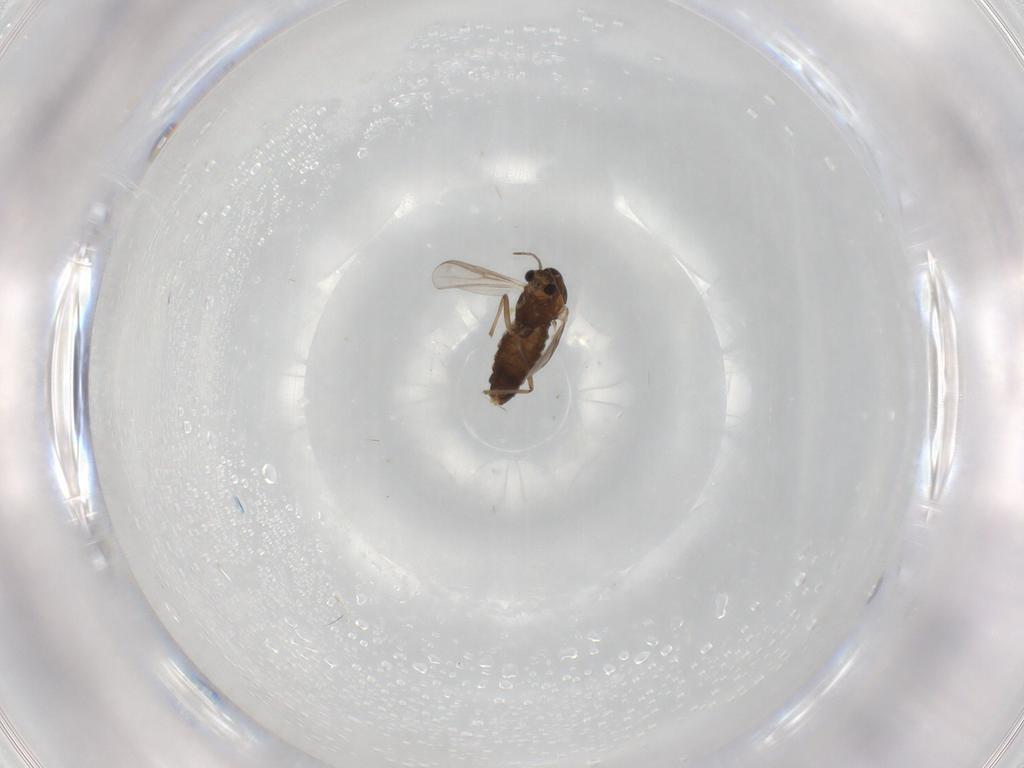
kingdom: Animalia
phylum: Arthropoda
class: Insecta
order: Diptera
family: Chironomidae
